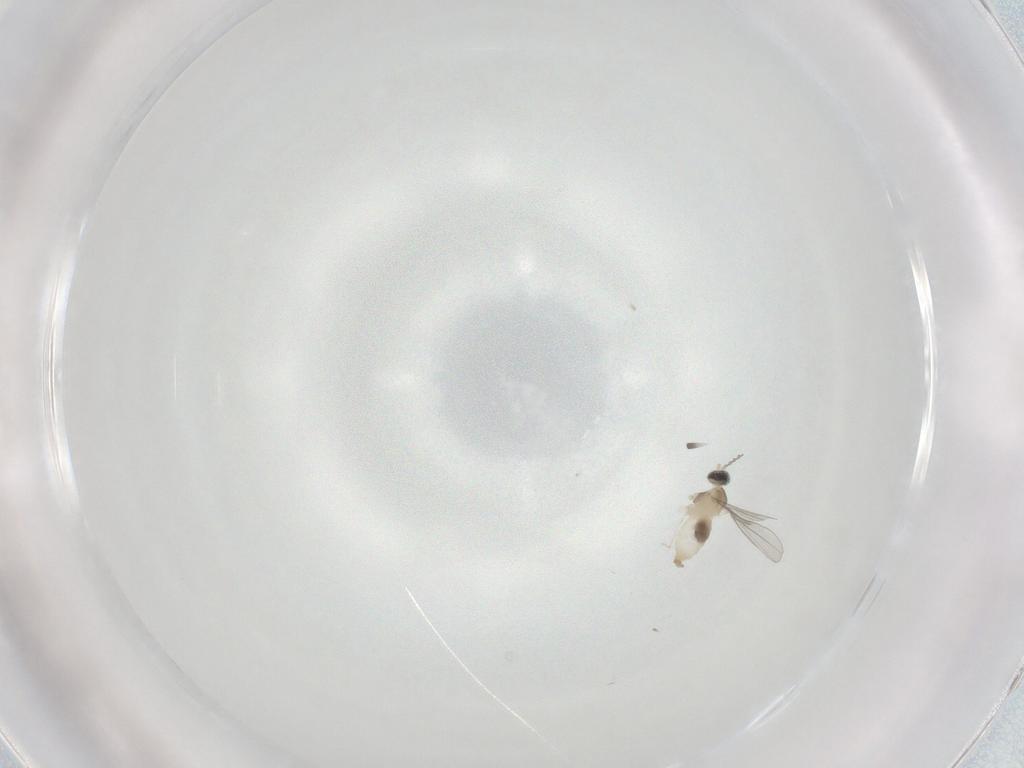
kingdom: Animalia
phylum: Arthropoda
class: Insecta
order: Diptera
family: Cecidomyiidae
